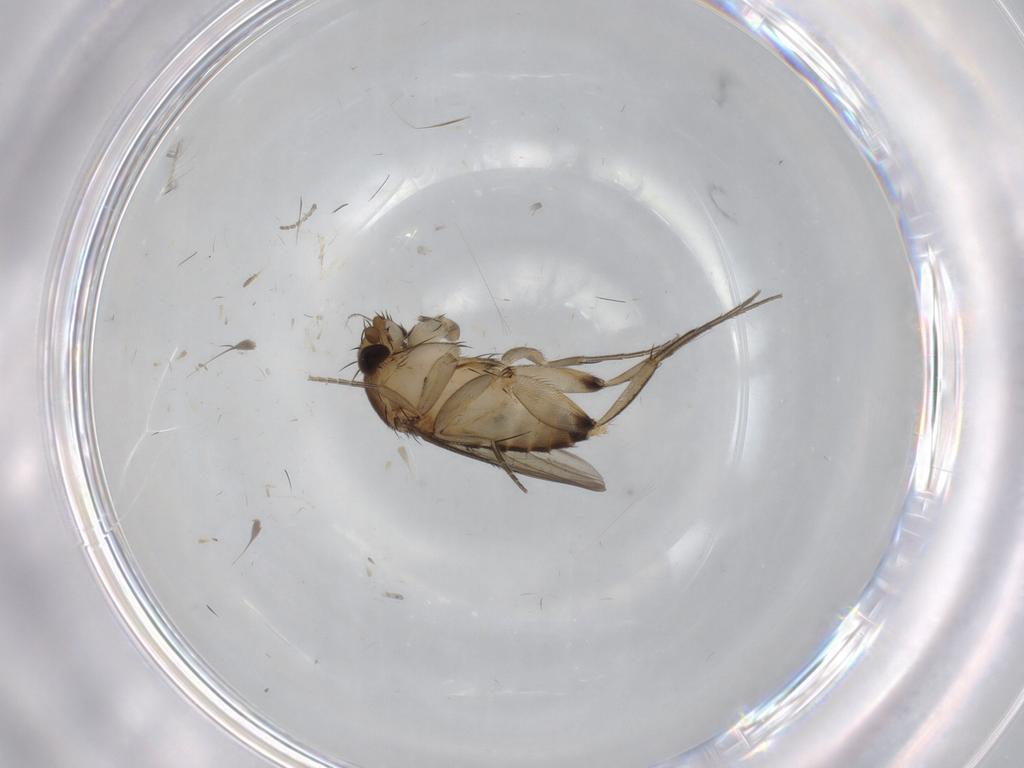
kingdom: Animalia
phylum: Arthropoda
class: Insecta
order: Diptera
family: Cecidomyiidae
